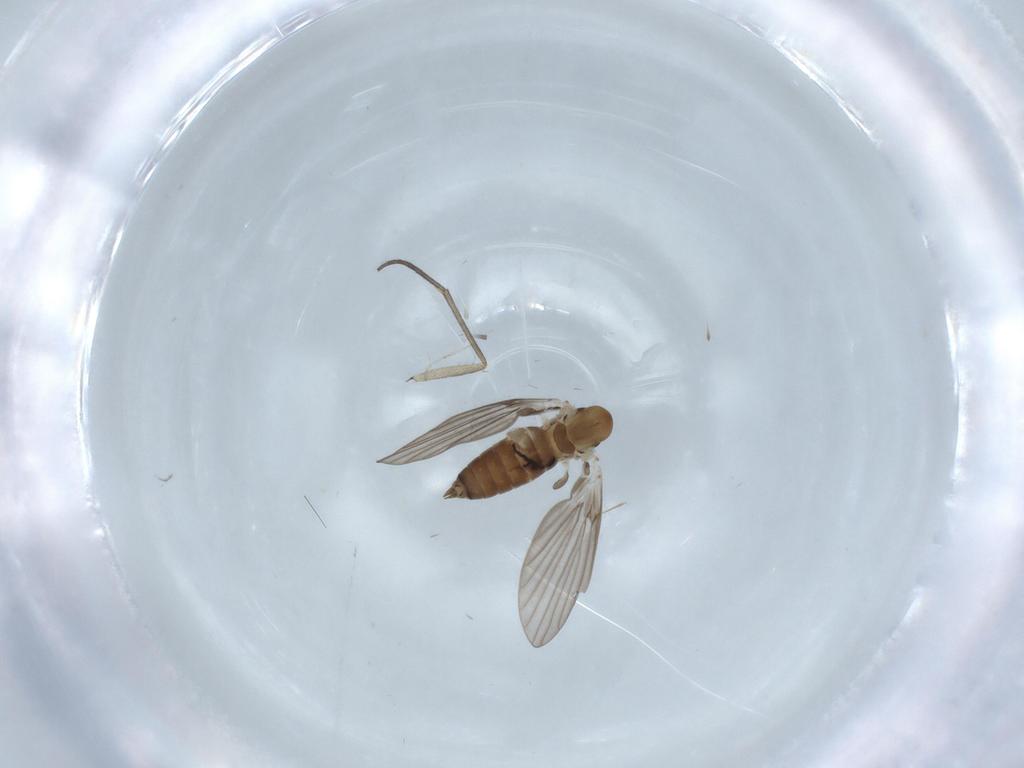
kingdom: Animalia
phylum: Arthropoda
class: Insecta
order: Diptera
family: Sciaridae
